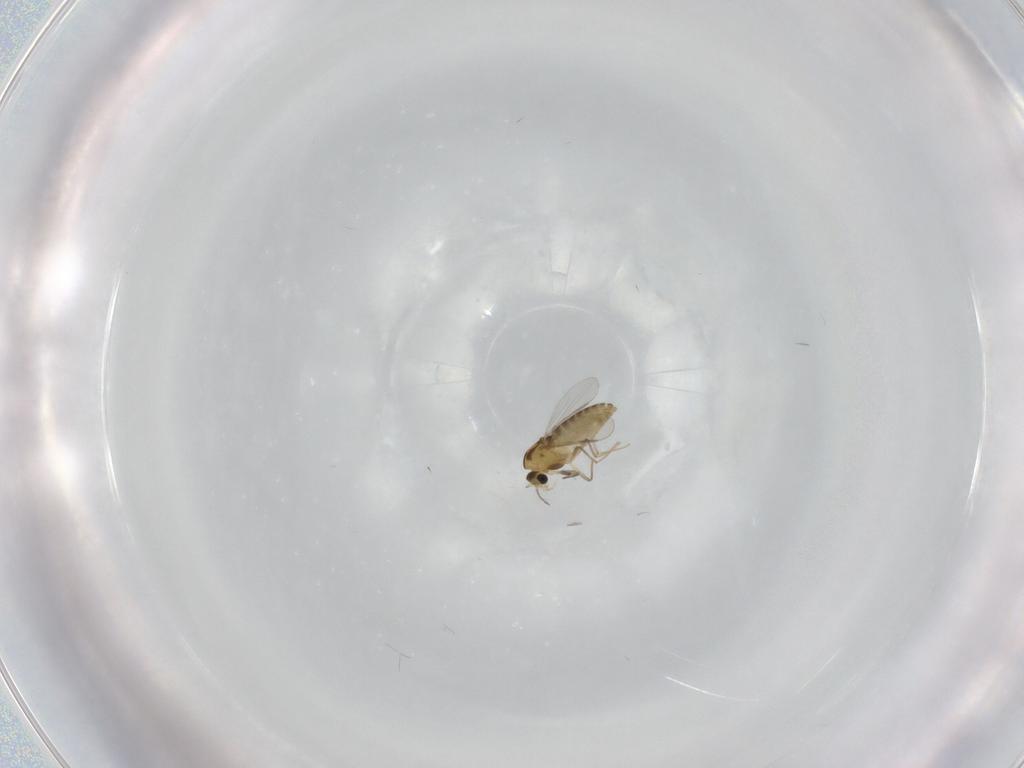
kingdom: Animalia
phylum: Arthropoda
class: Insecta
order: Diptera
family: Chironomidae
